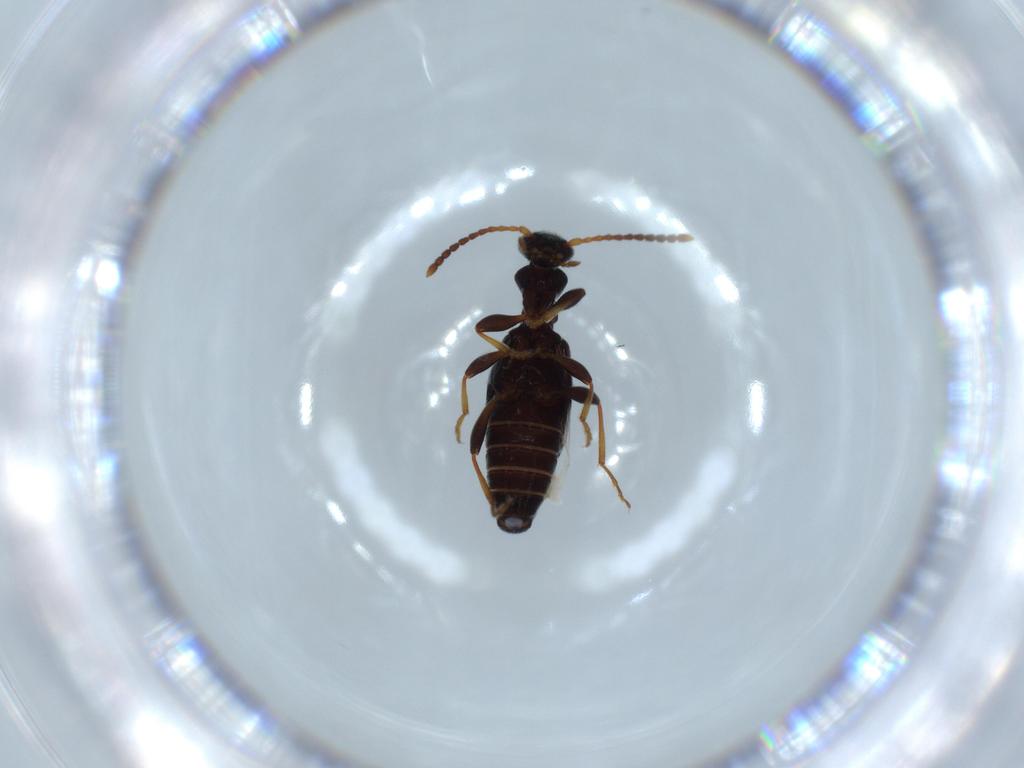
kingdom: Animalia
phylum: Arthropoda
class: Insecta
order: Coleoptera
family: Anthicidae
